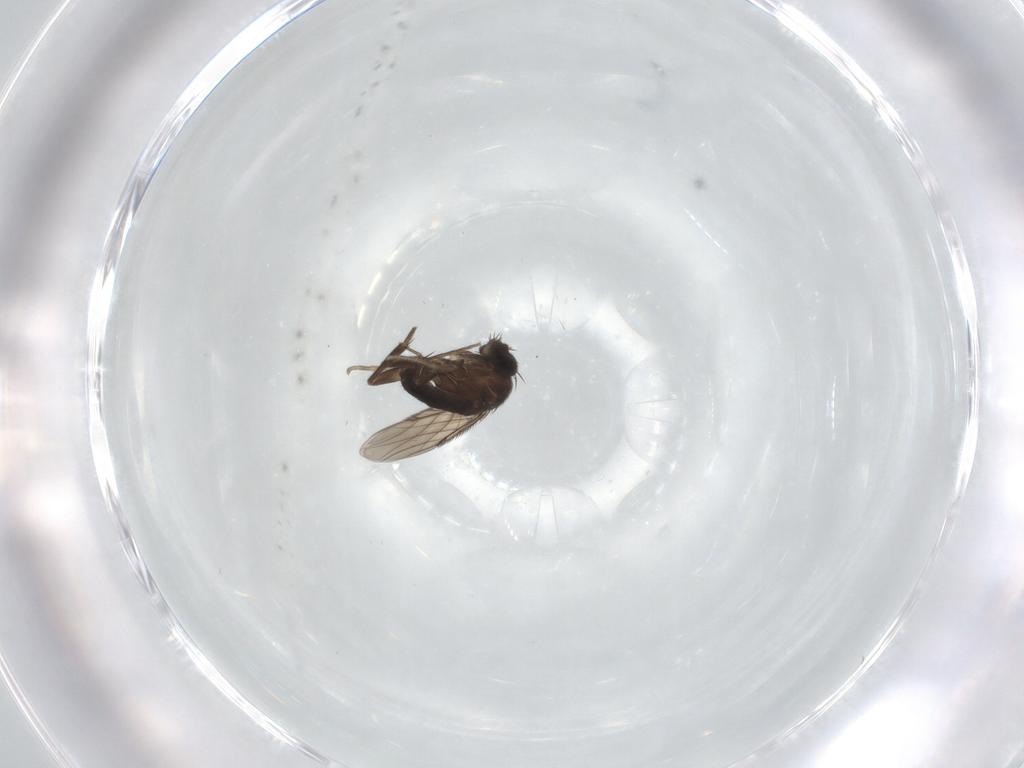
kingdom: Animalia
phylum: Arthropoda
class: Insecta
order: Diptera
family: Phoridae
